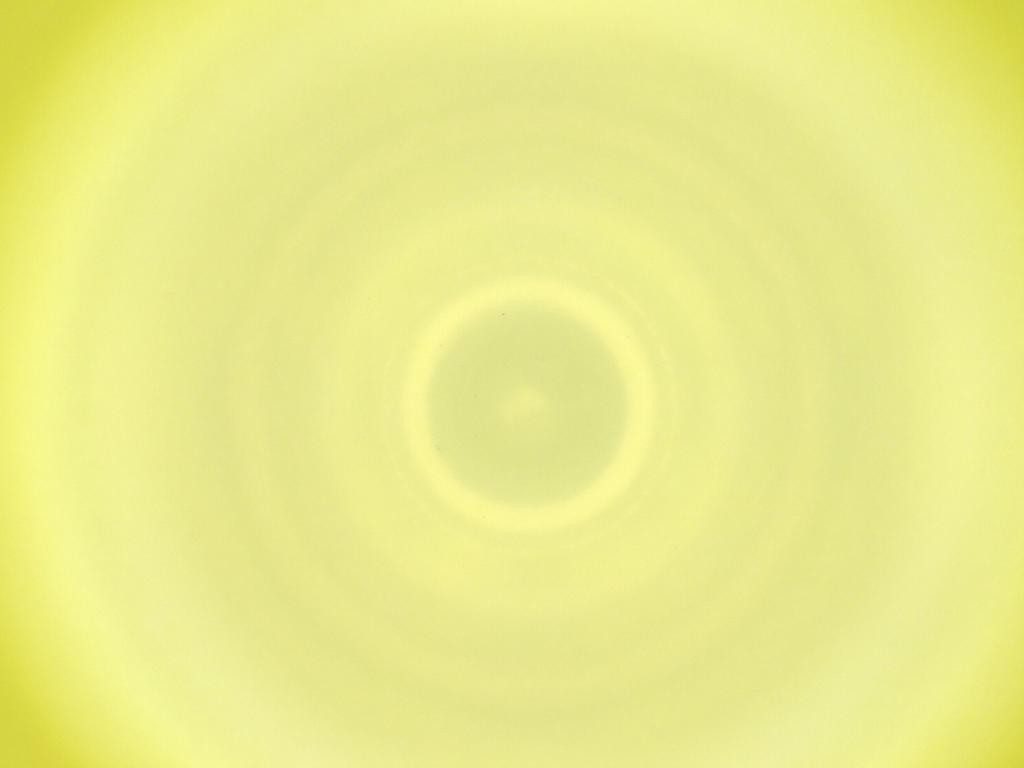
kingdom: Animalia
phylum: Arthropoda
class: Insecta
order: Diptera
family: Cecidomyiidae
